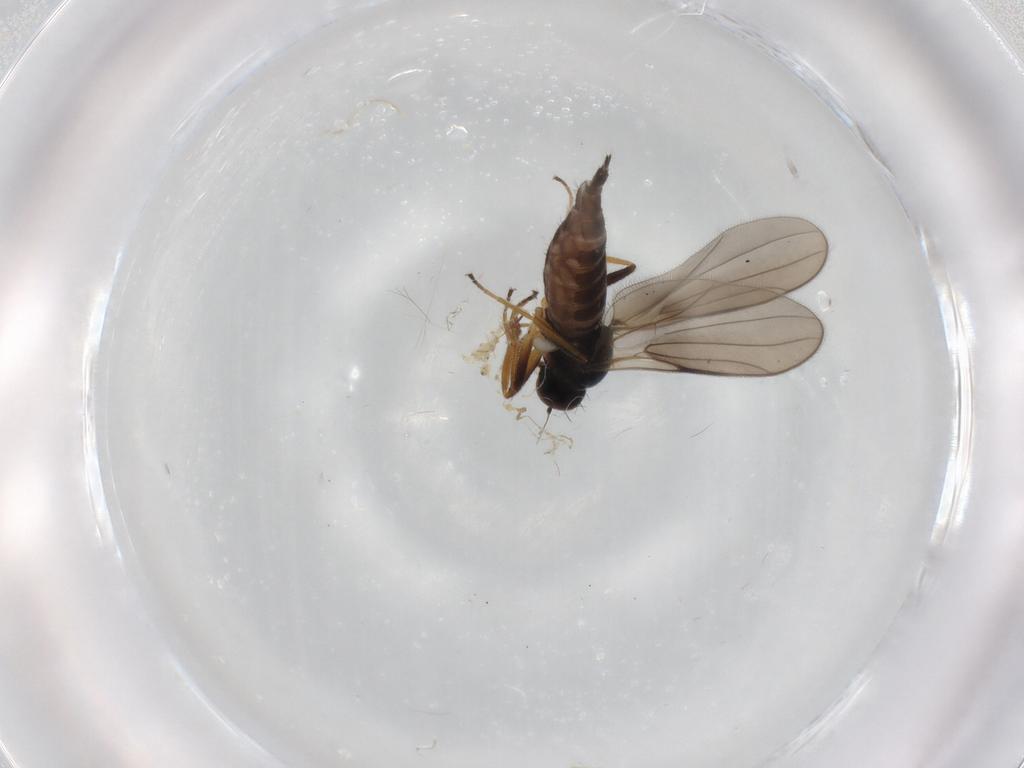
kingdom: Animalia
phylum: Arthropoda
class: Insecta
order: Diptera
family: Hybotidae
